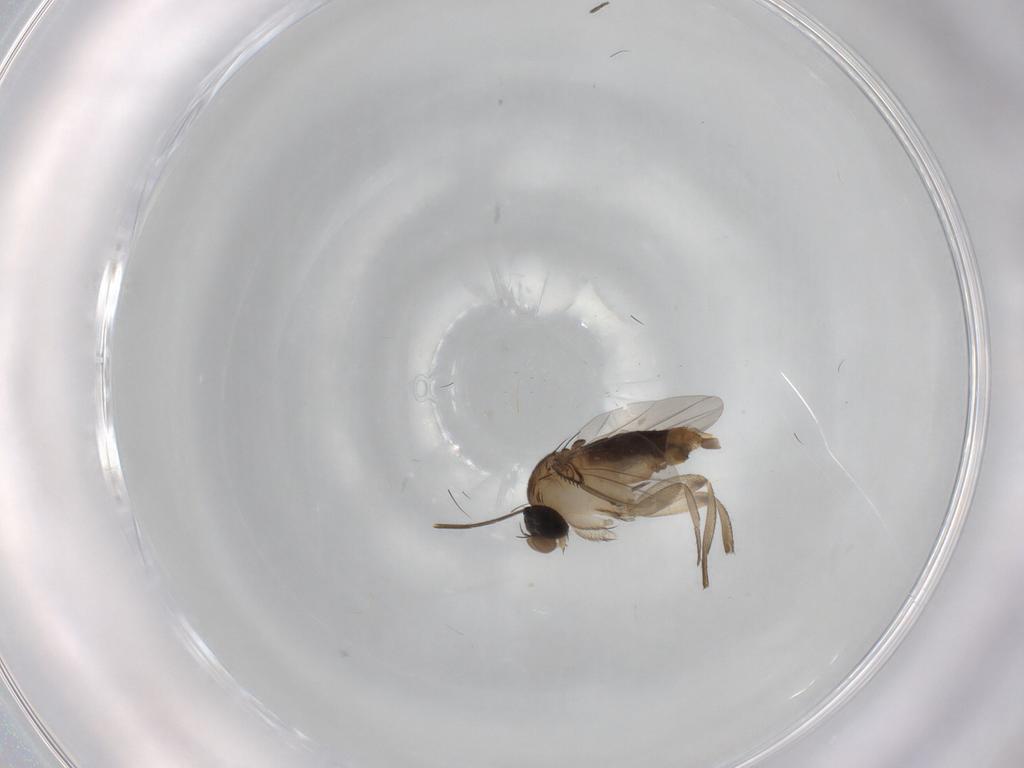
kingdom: Animalia
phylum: Arthropoda
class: Insecta
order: Diptera
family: Phoridae
